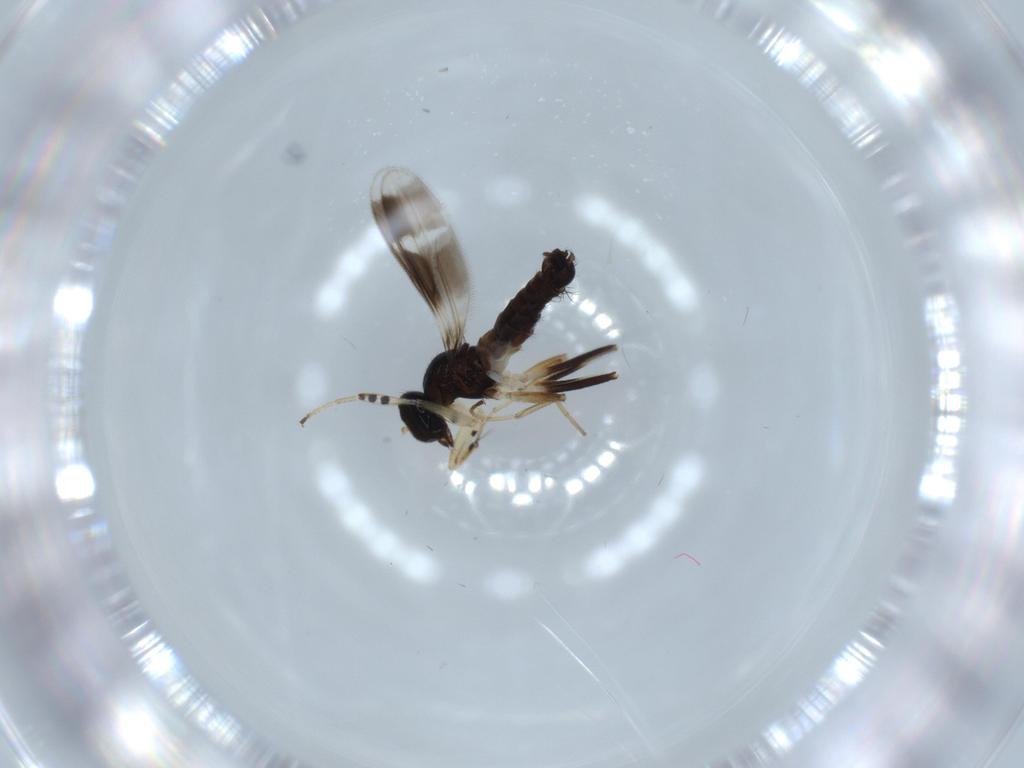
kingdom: Animalia
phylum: Arthropoda
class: Insecta
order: Diptera
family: Hybotidae
